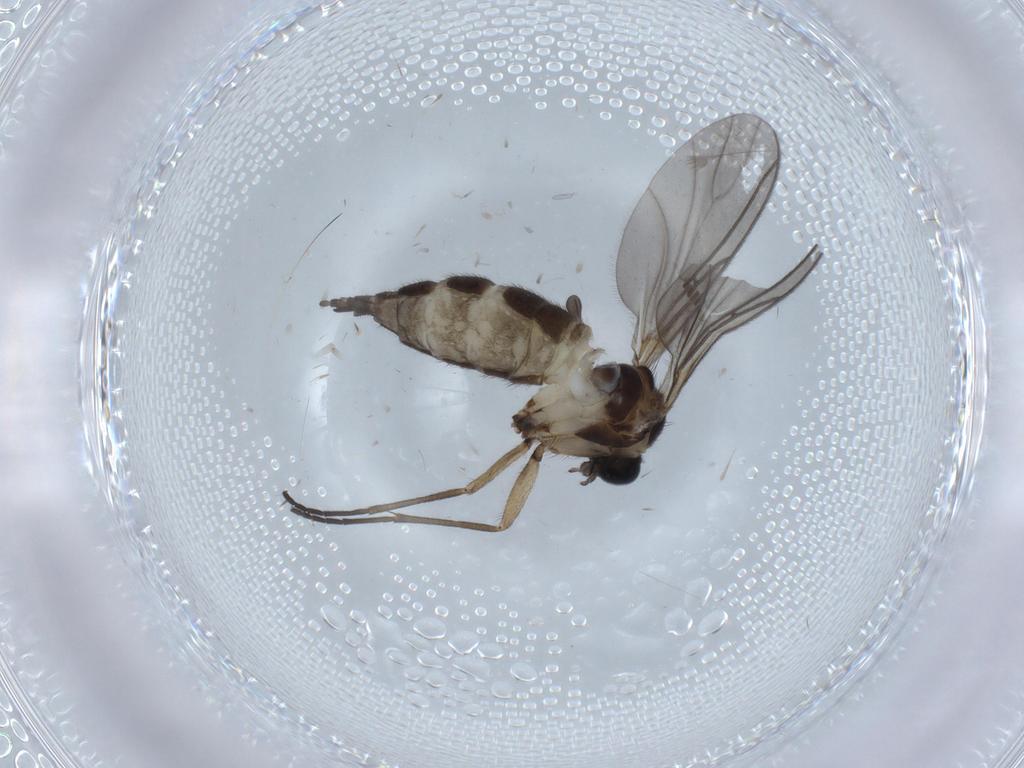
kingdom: Animalia
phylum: Arthropoda
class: Insecta
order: Diptera
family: Sciaridae
